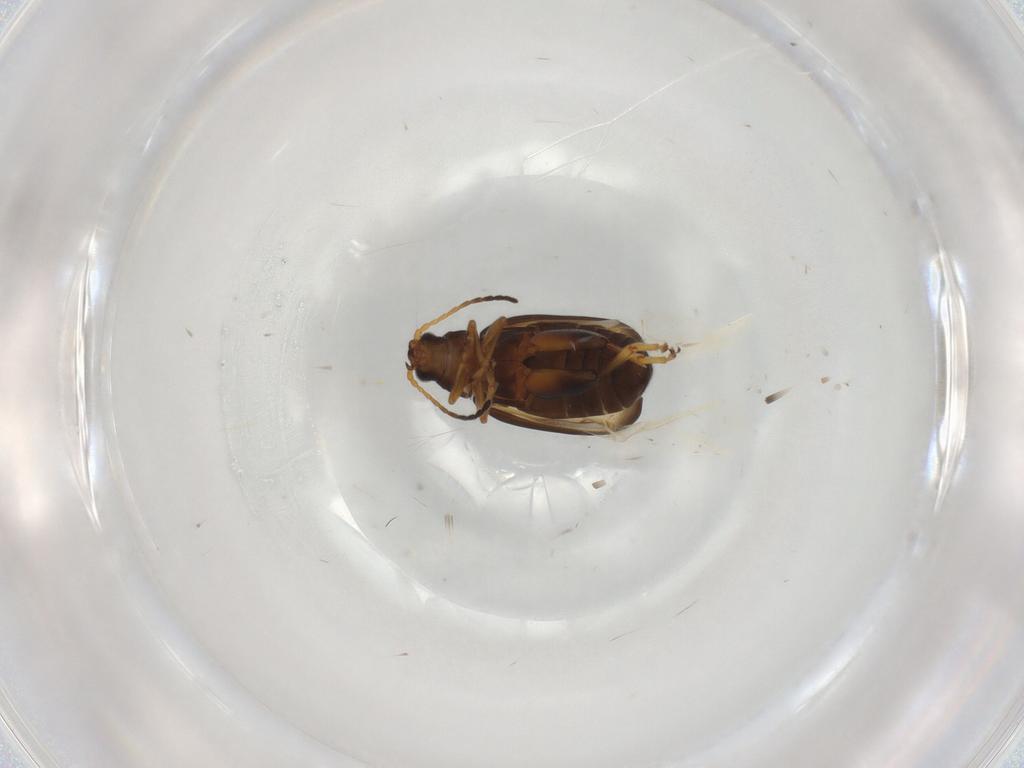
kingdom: Animalia
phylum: Arthropoda
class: Insecta
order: Coleoptera
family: Chrysomelidae
